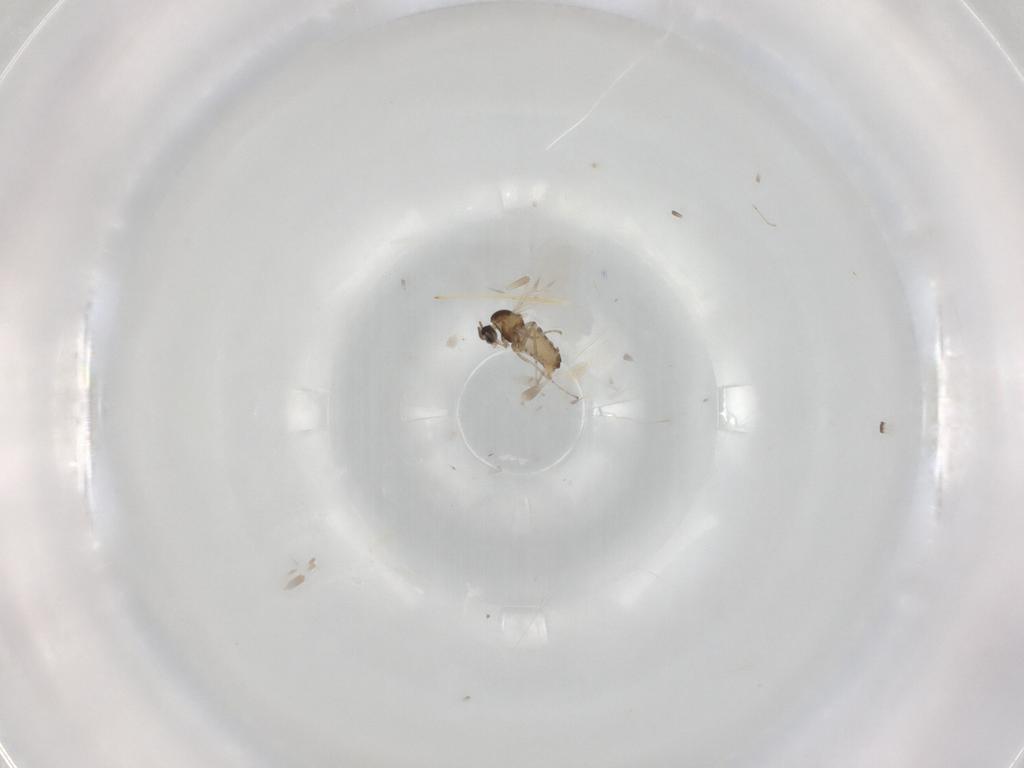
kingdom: Animalia
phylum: Arthropoda
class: Insecta
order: Diptera
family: Cecidomyiidae
